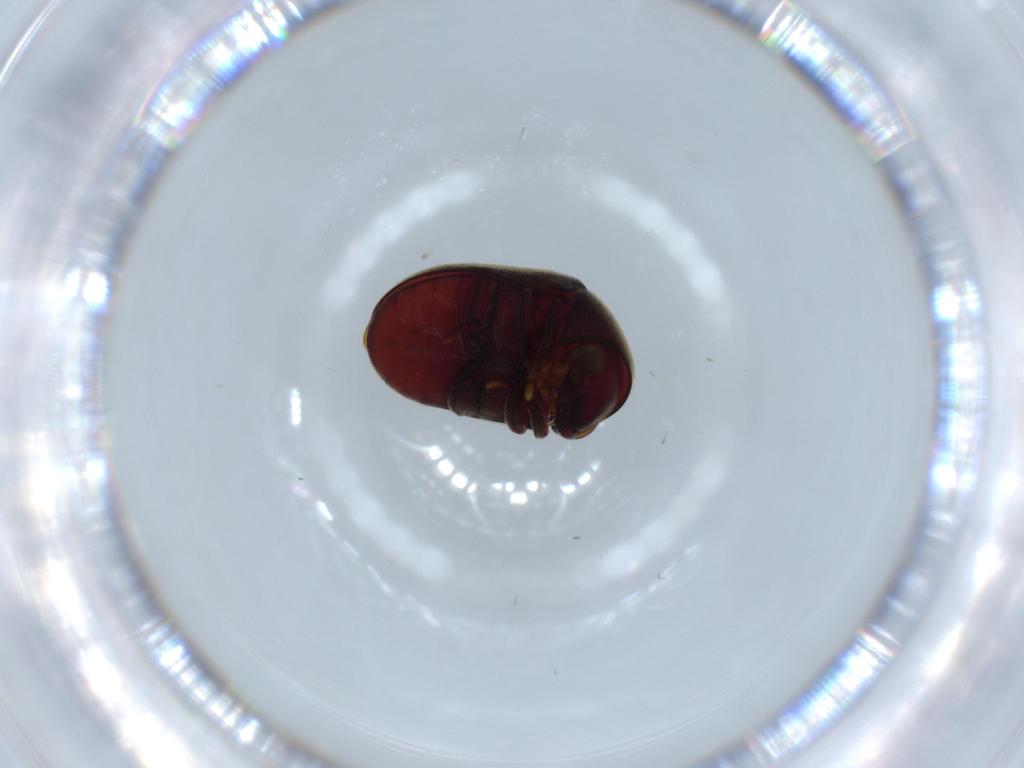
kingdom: Animalia
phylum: Arthropoda
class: Insecta
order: Coleoptera
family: Ptinidae
